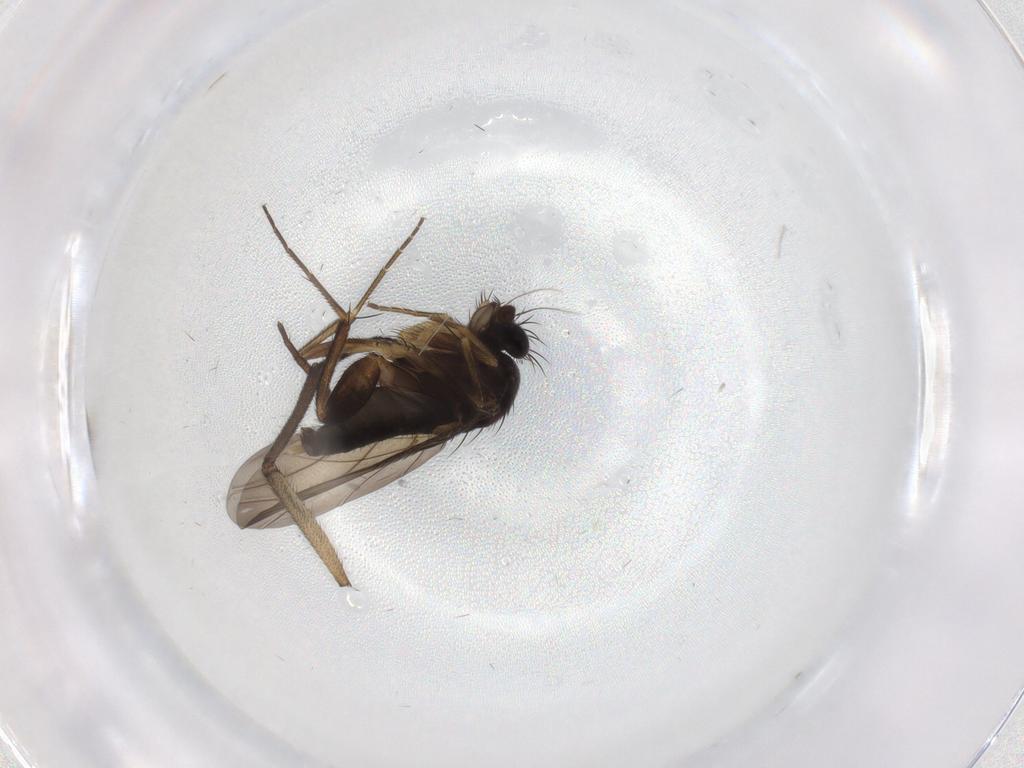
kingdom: Animalia
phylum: Arthropoda
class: Insecta
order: Diptera
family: Phoridae
